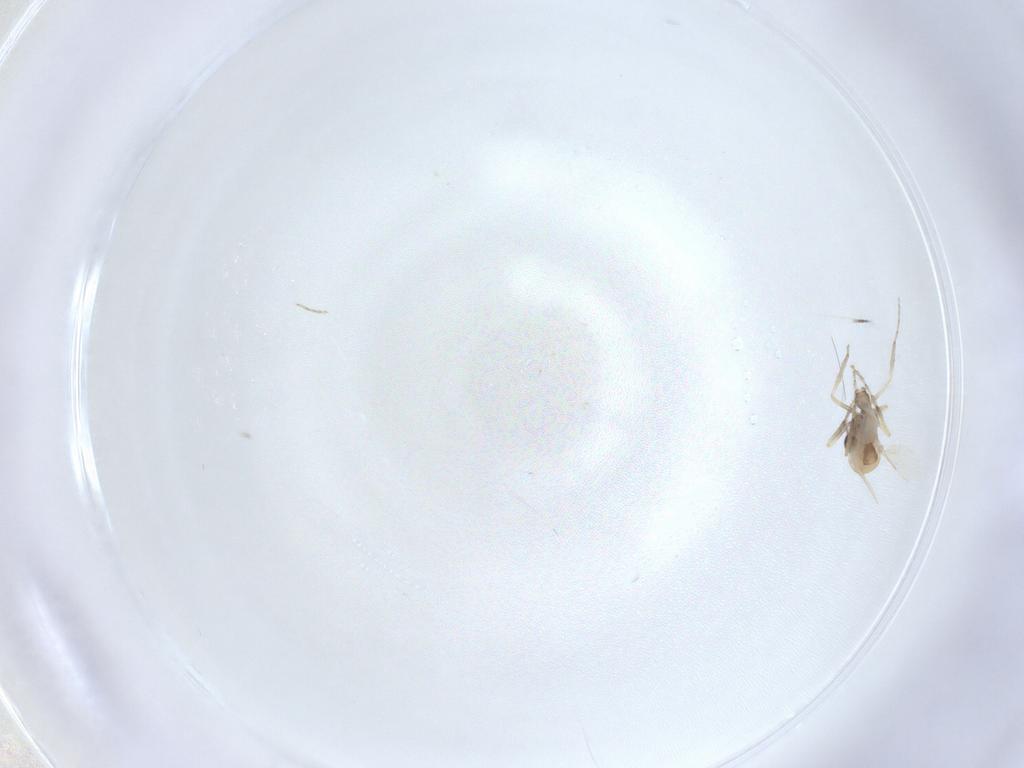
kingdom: Animalia
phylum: Arthropoda
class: Insecta
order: Diptera
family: Ceratopogonidae
